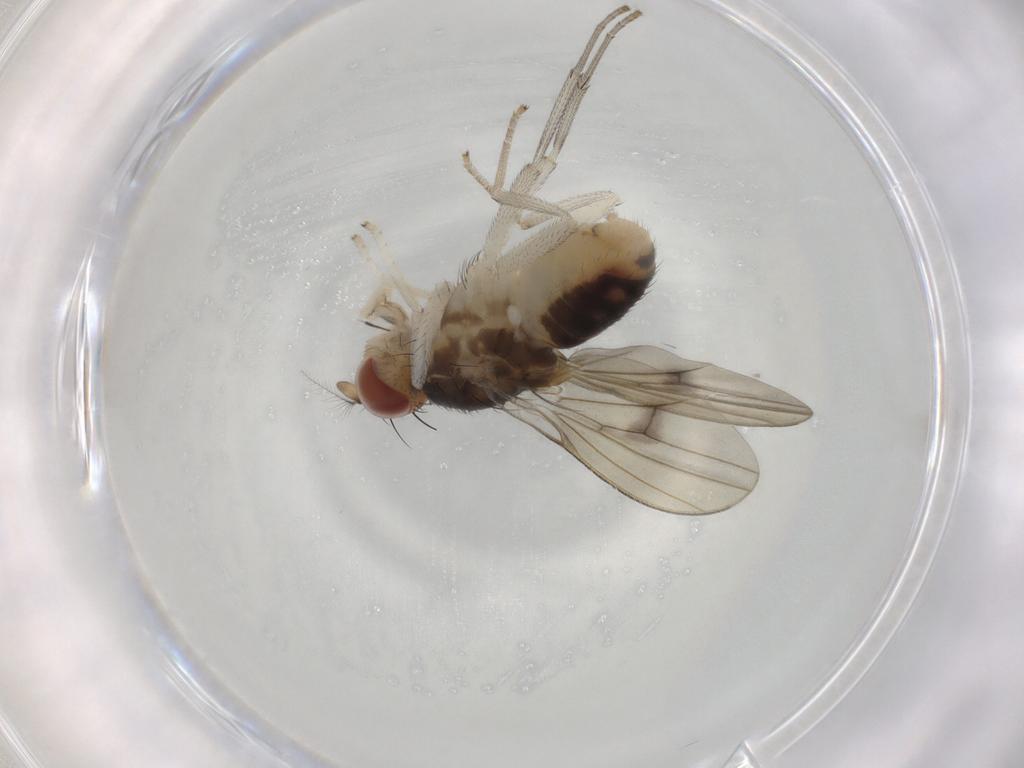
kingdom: Animalia
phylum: Arthropoda
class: Insecta
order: Diptera
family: Lauxaniidae
